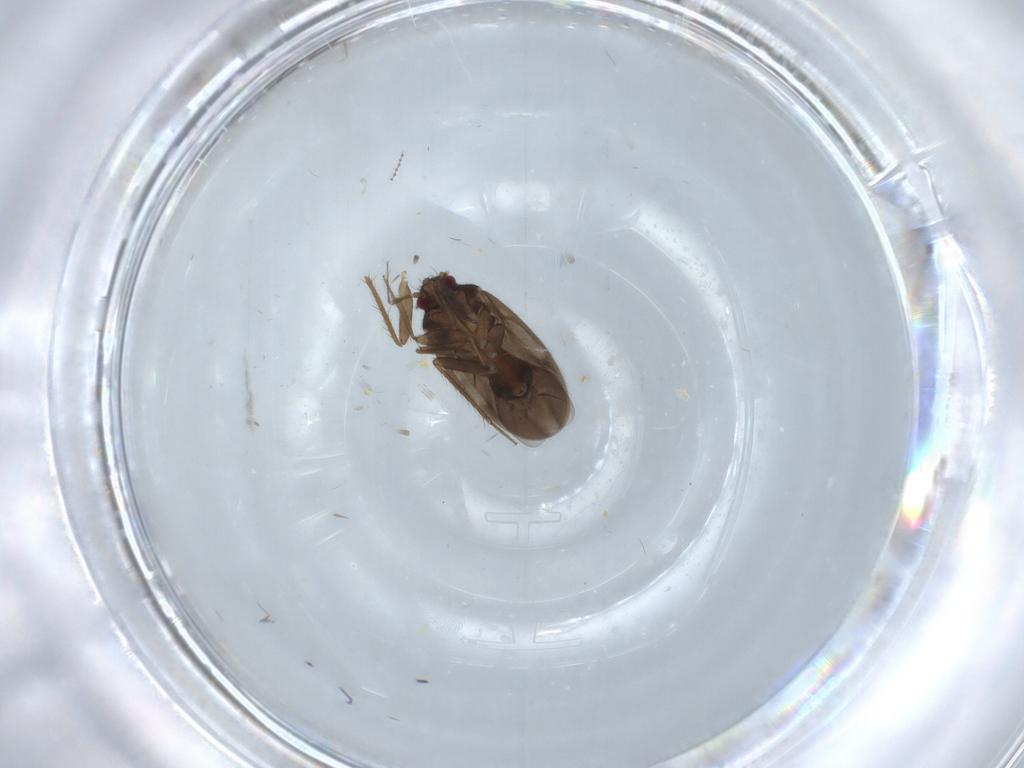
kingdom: Animalia
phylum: Arthropoda
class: Insecta
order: Hemiptera
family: Ceratocombidae
